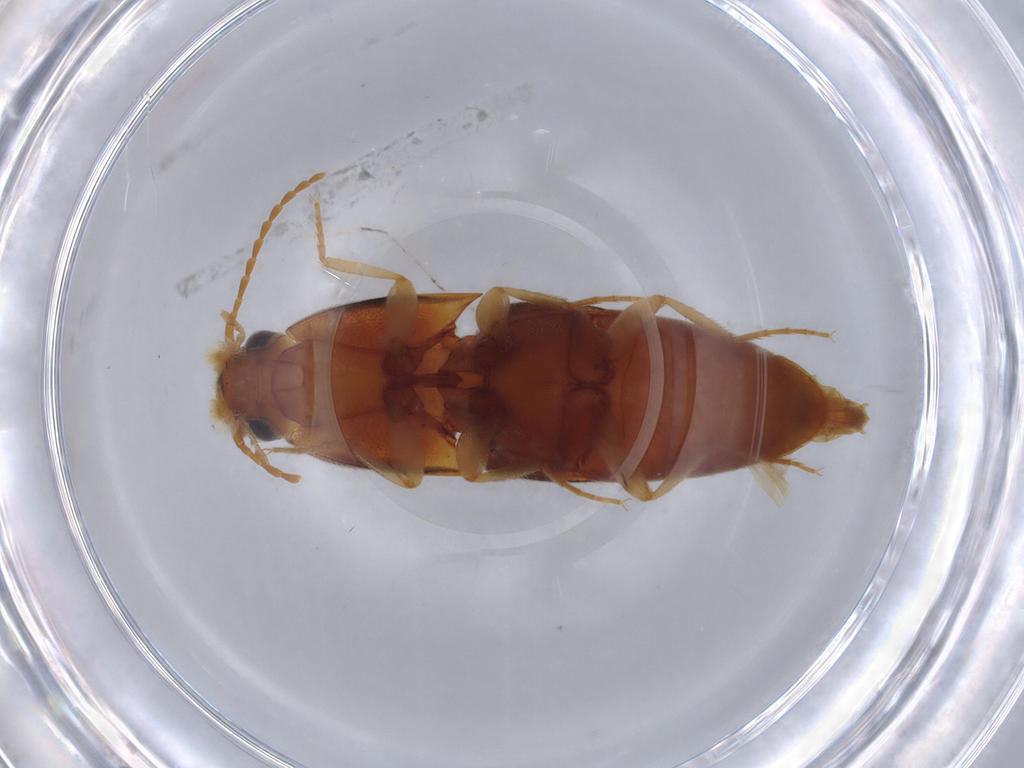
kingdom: Animalia
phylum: Arthropoda
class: Insecta
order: Coleoptera
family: Elateridae
